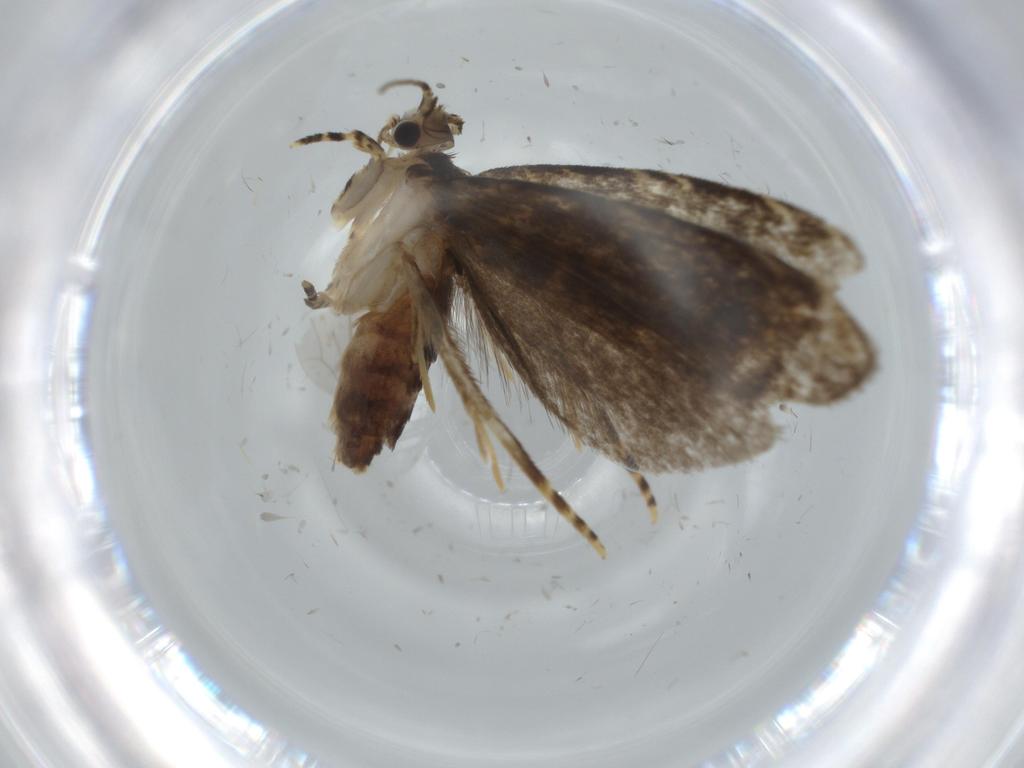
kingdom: Animalia
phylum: Arthropoda
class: Insecta
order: Lepidoptera
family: Tineidae
